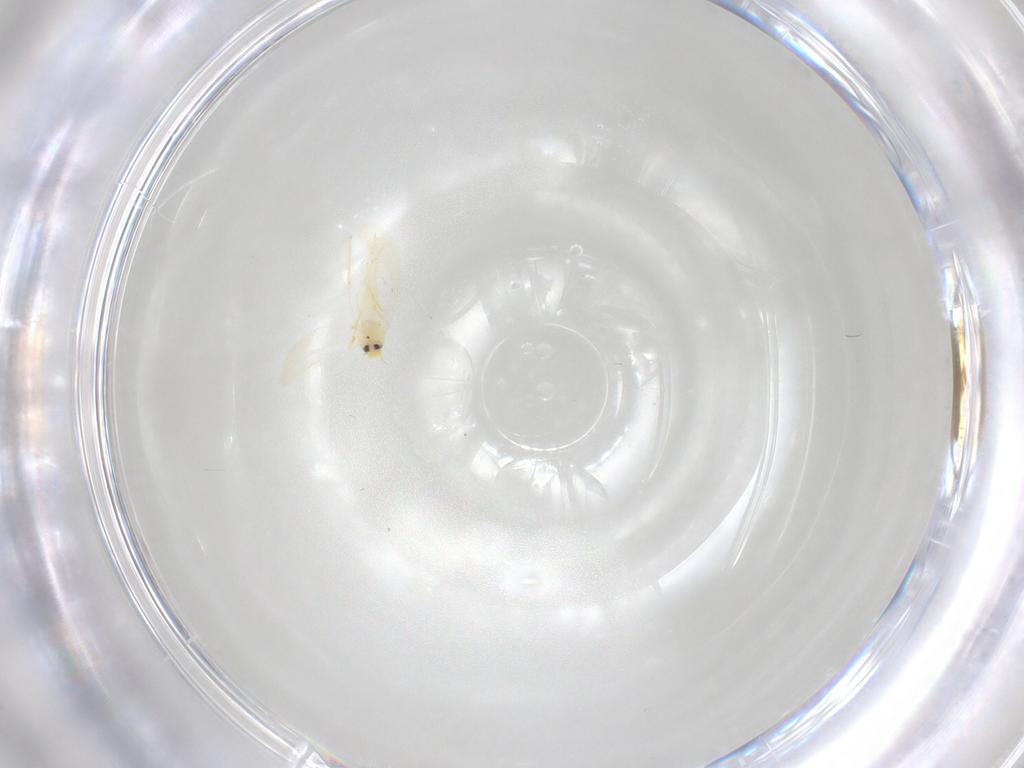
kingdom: Animalia
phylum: Arthropoda
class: Insecta
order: Hemiptera
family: Aleyrodidae
